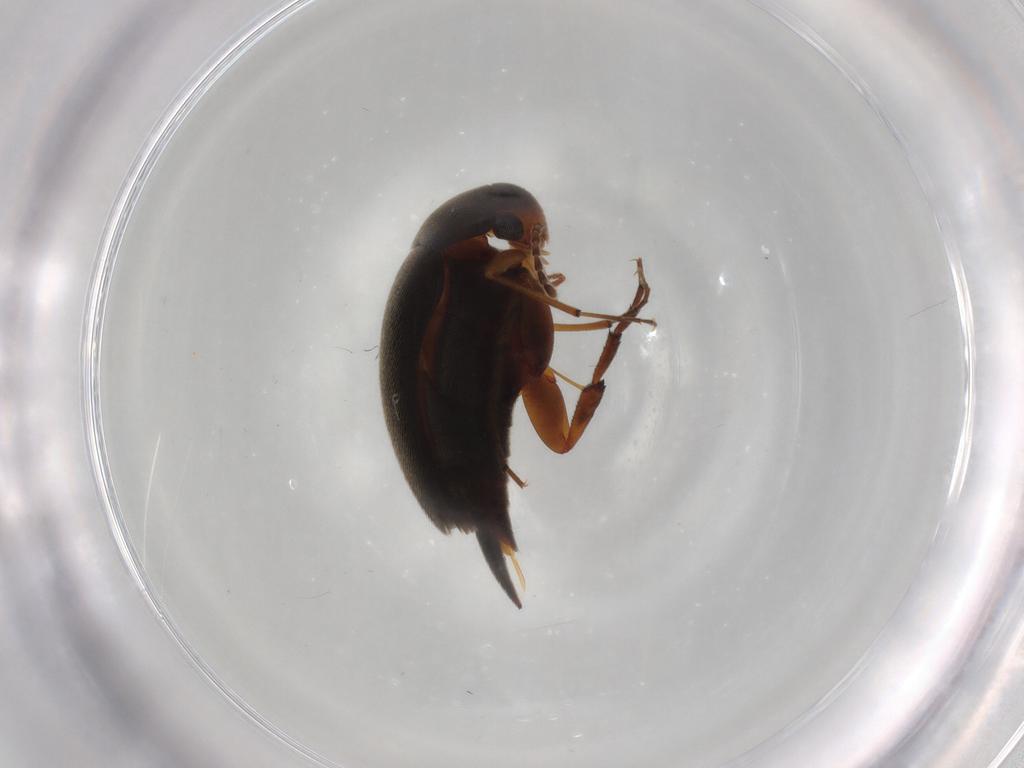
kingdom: Animalia
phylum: Arthropoda
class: Insecta
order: Coleoptera
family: Mordellidae
